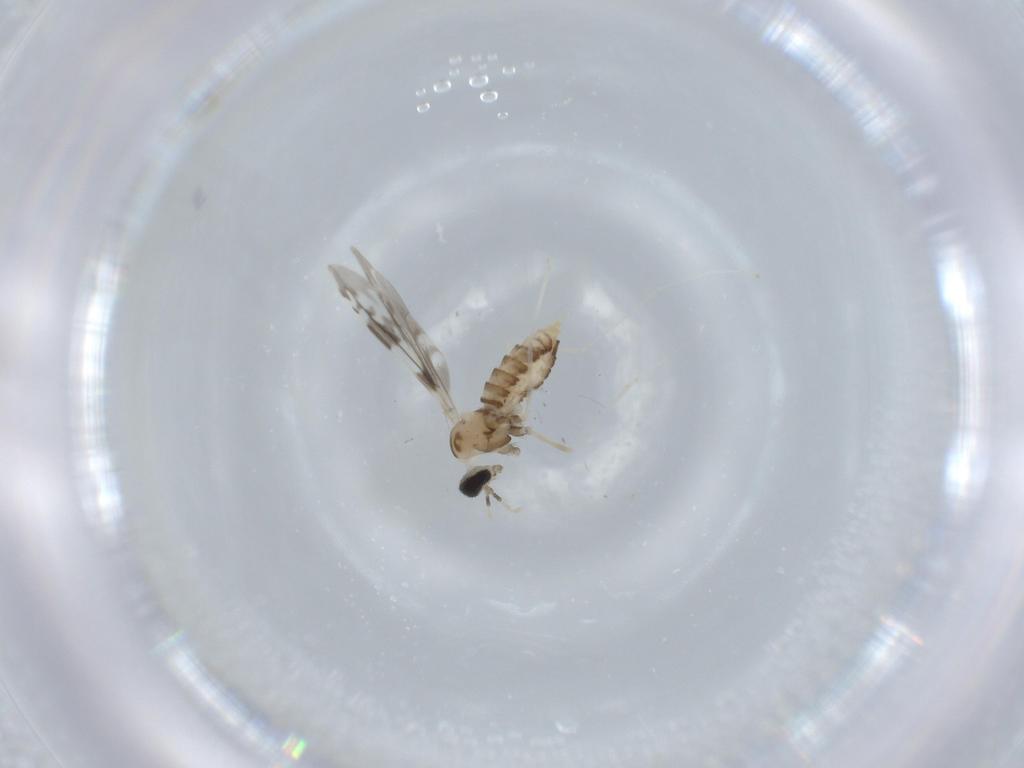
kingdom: Animalia
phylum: Arthropoda
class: Insecta
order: Diptera
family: Cecidomyiidae
